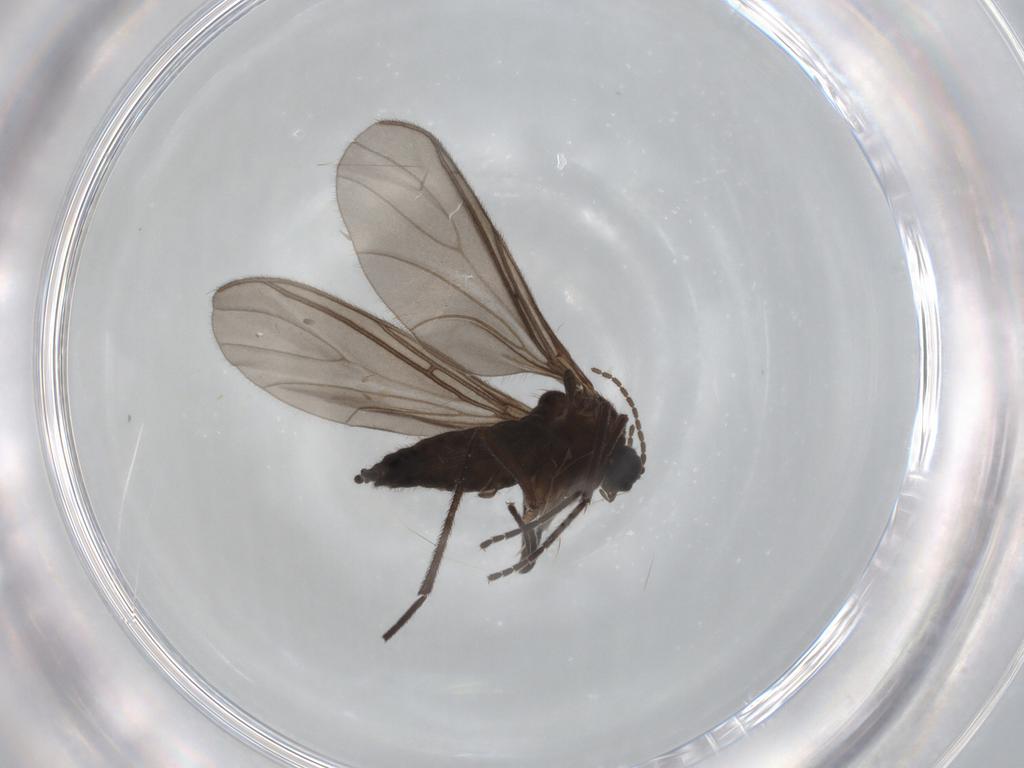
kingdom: Animalia
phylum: Arthropoda
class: Insecta
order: Diptera
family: Sciaridae
